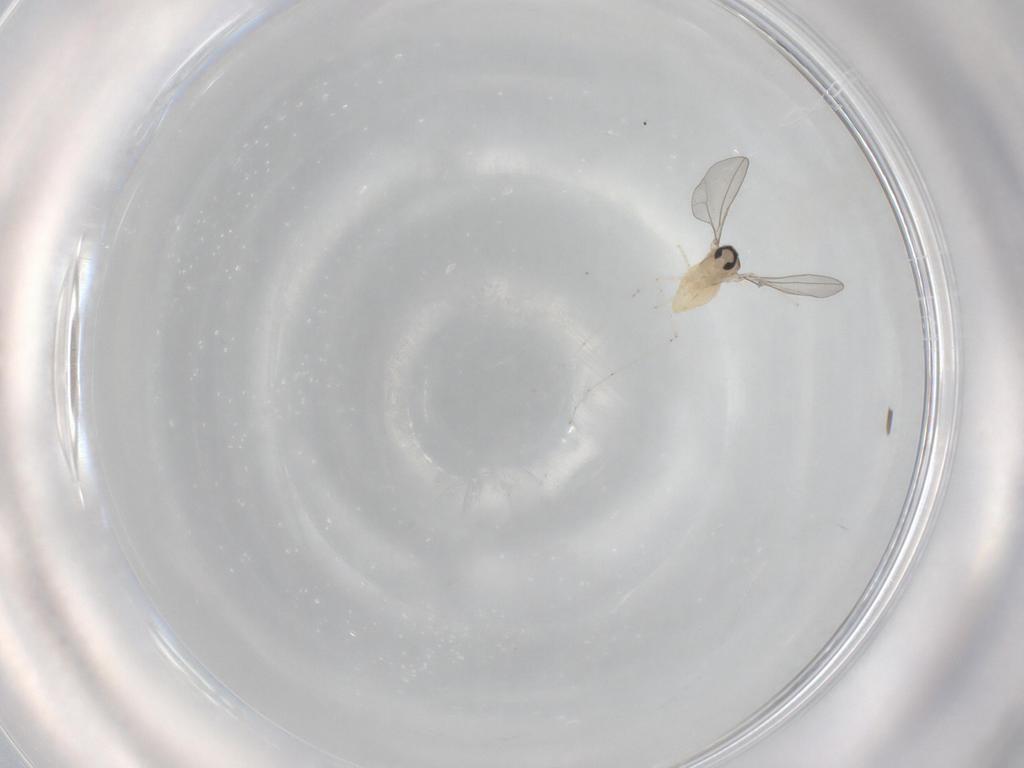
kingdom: Animalia
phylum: Arthropoda
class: Insecta
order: Diptera
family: Cecidomyiidae
